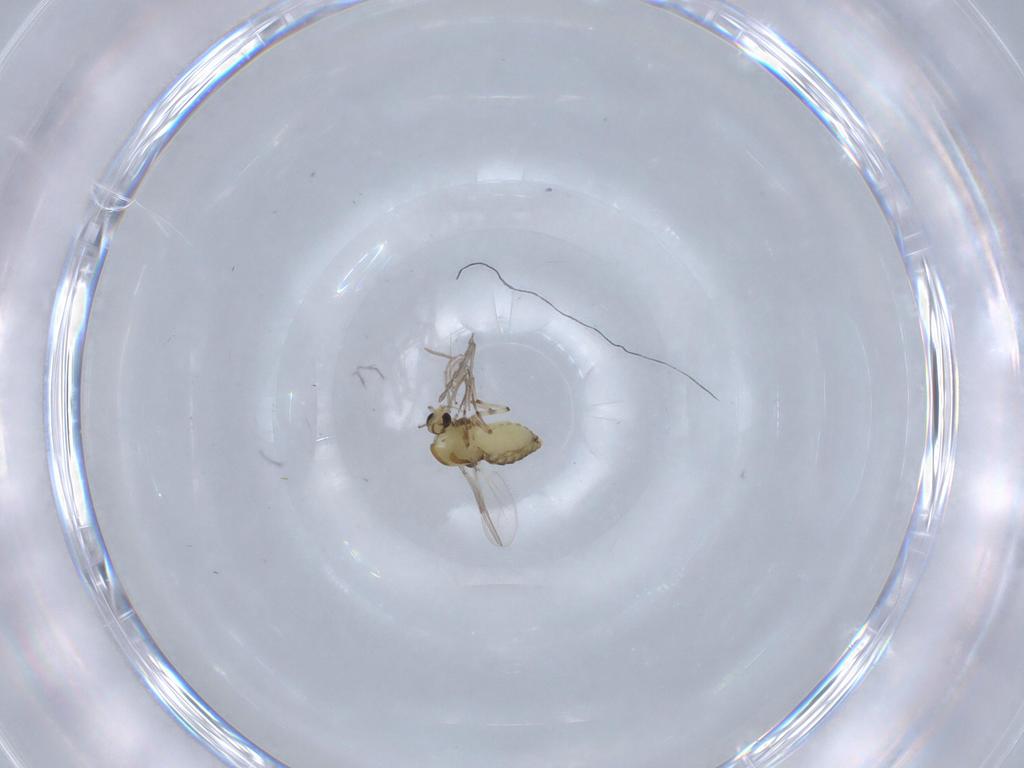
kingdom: Animalia
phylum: Arthropoda
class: Insecta
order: Diptera
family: Chironomidae
